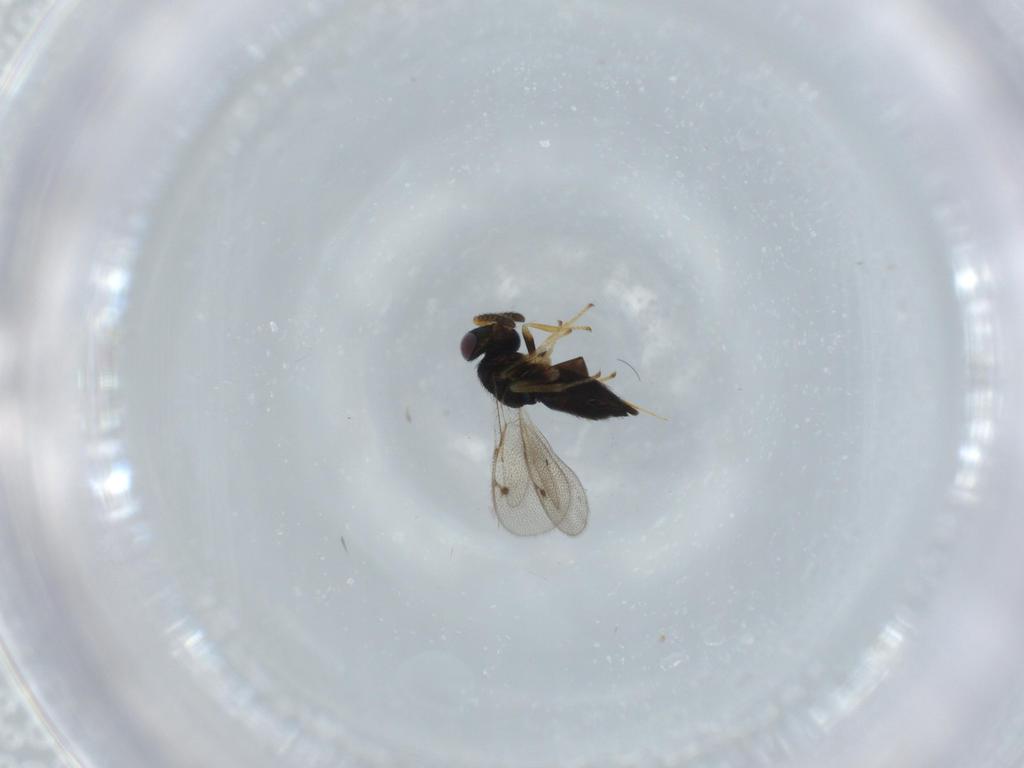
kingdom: Animalia
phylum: Arthropoda
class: Insecta
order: Hymenoptera
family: Pirenidae
